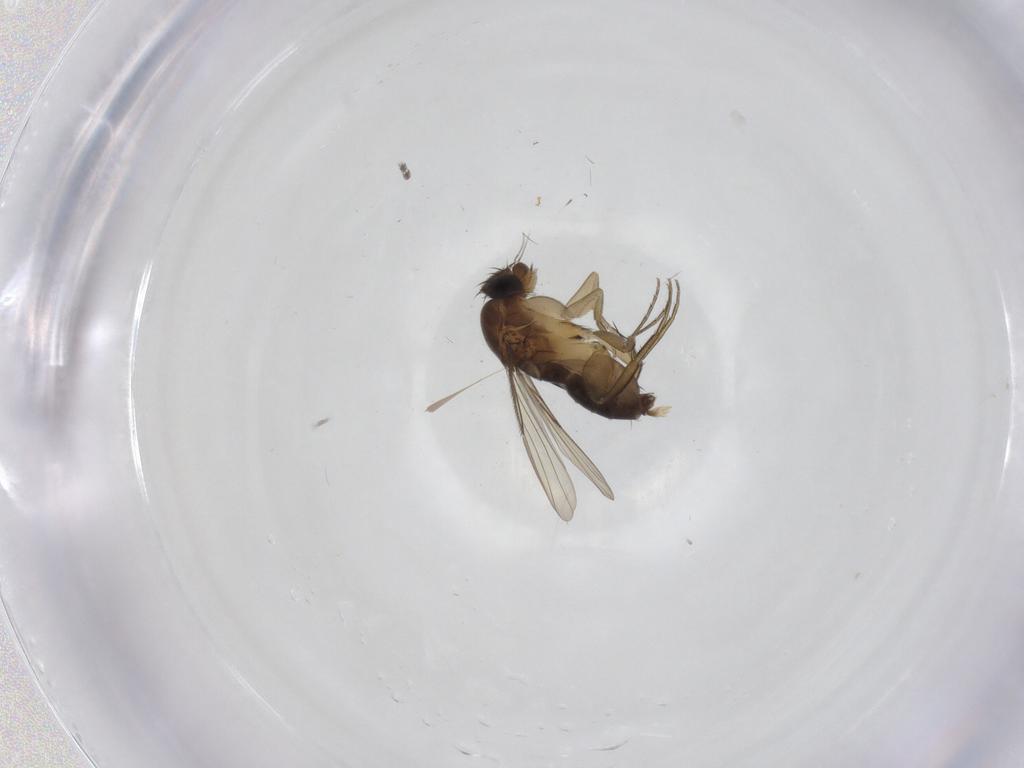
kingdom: Animalia
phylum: Arthropoda
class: Insecta
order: Diptera
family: Phoridae
